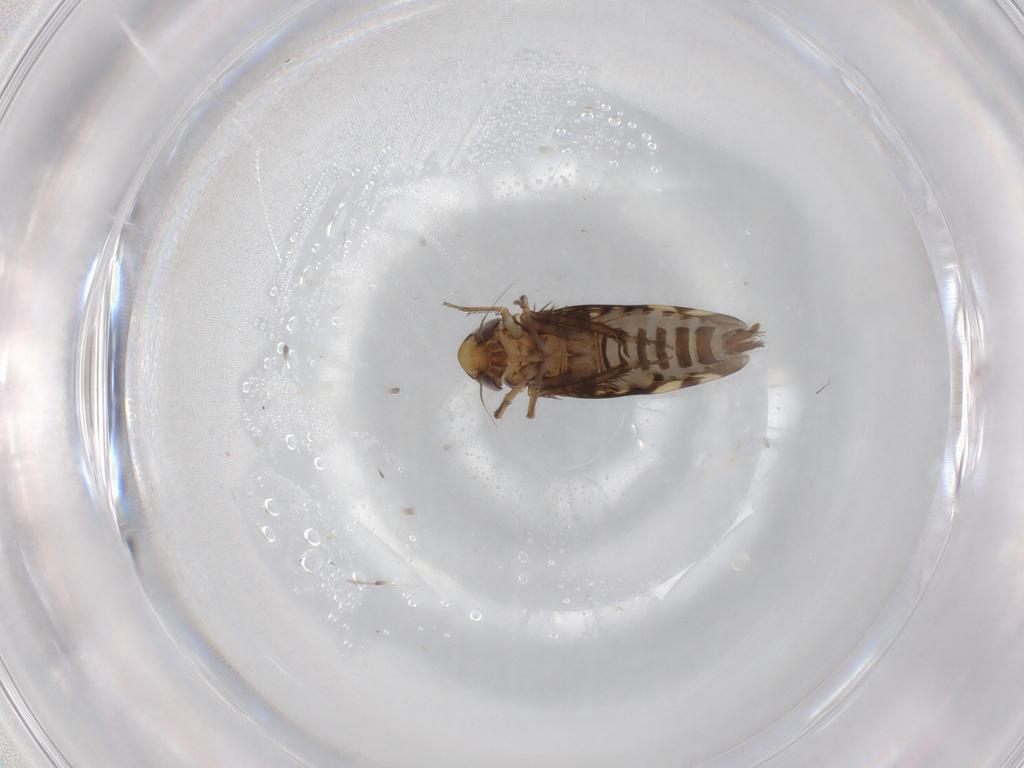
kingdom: Animalia
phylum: Arthropoda
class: Insecta
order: Hemiptera
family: Cicadellidae
